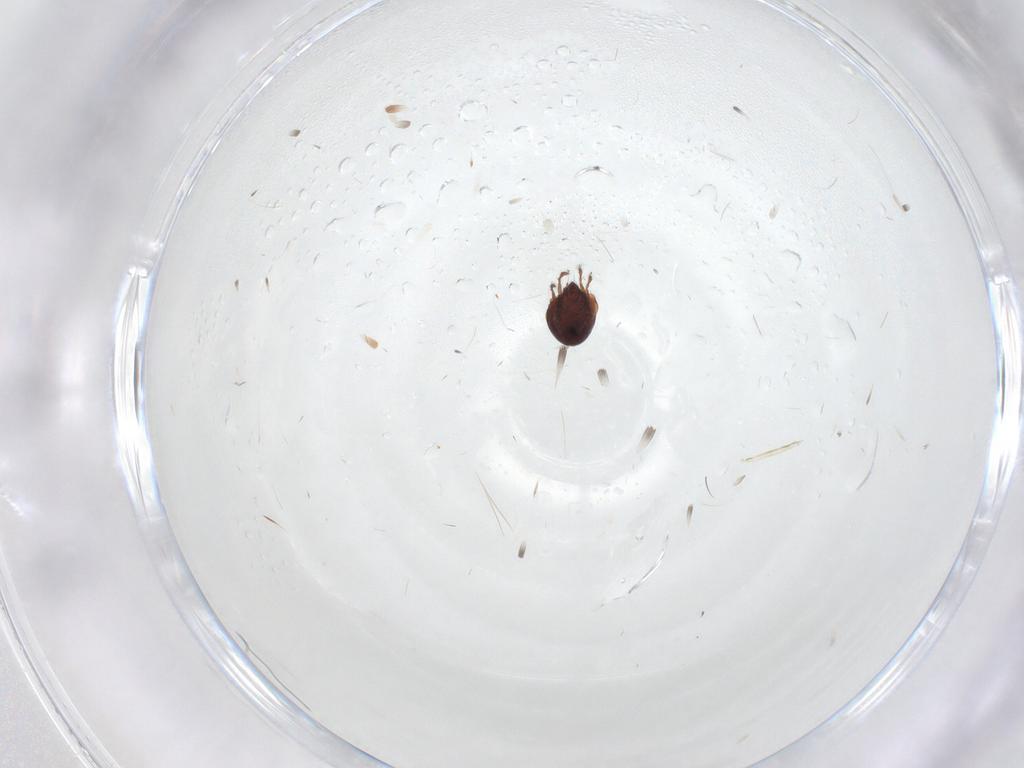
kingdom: Animalia
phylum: Arthropoda
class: Arachnida
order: Sarcoptiformes
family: Ceratozetidae
